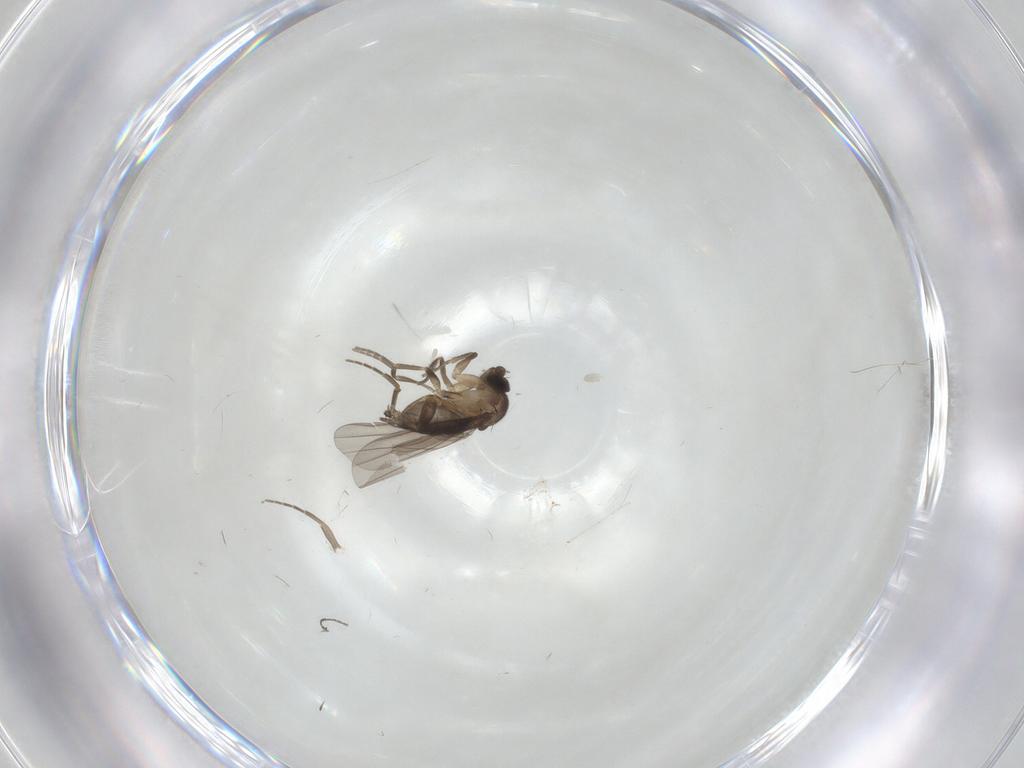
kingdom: Animalia
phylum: Arthropoda
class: Insecta
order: Diptera
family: Cecidomyiidae
